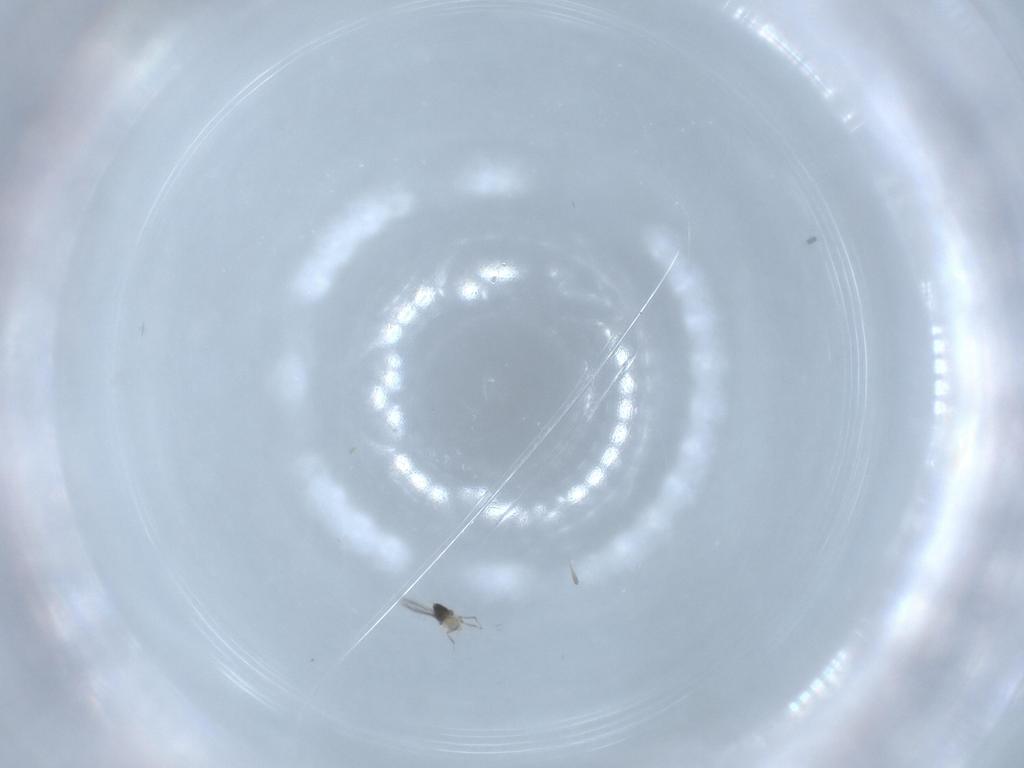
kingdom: Animalia
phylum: Arthropoda
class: Insecta
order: Hymenoptera
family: Mymaridae
